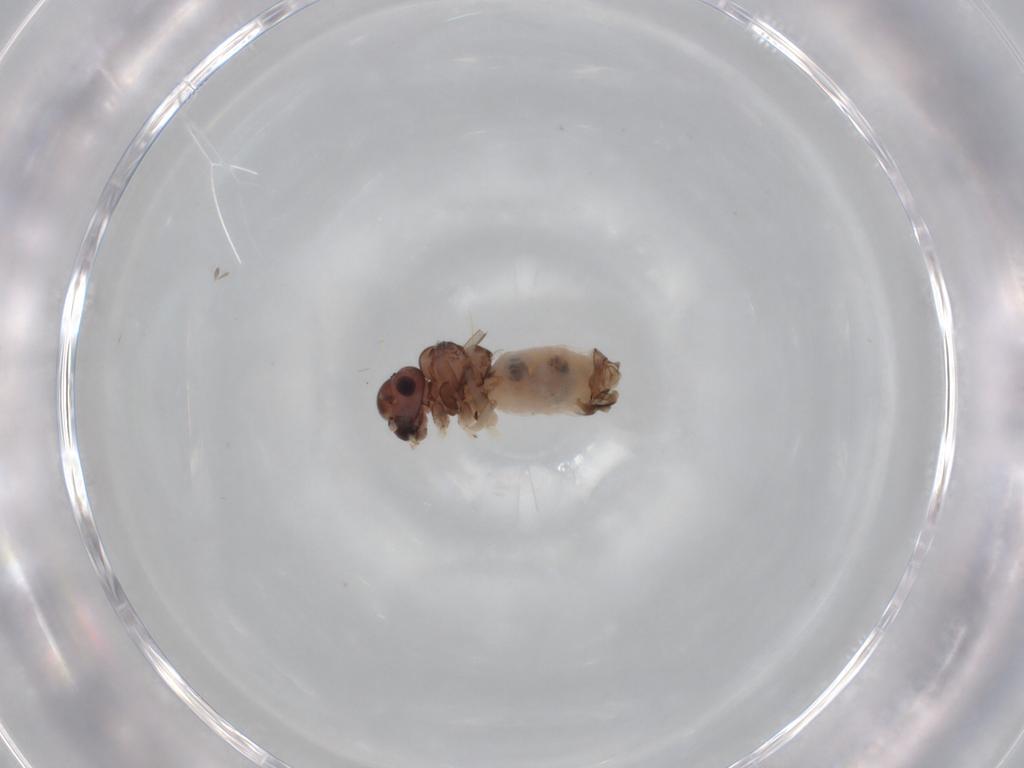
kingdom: Animalia
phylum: Arthropoda
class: Insecta
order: Psocodea
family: Peripsocidae
